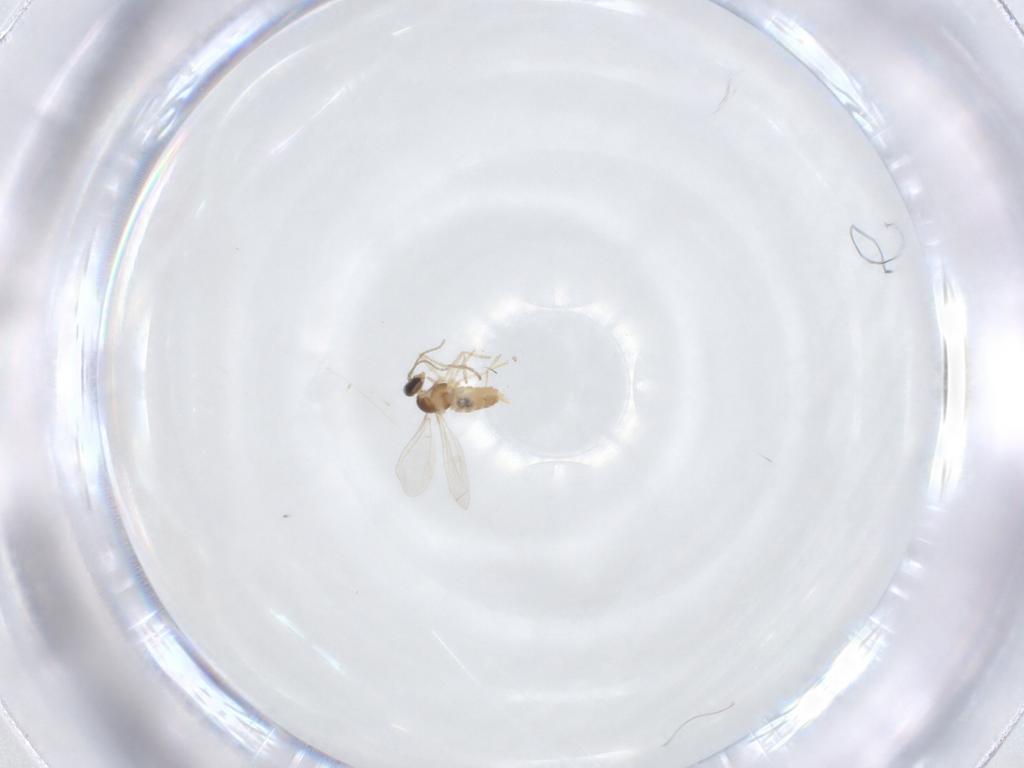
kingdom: Animalia
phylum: Arthropoda
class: Insecta
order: Diptera
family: Cecidomyiidae
